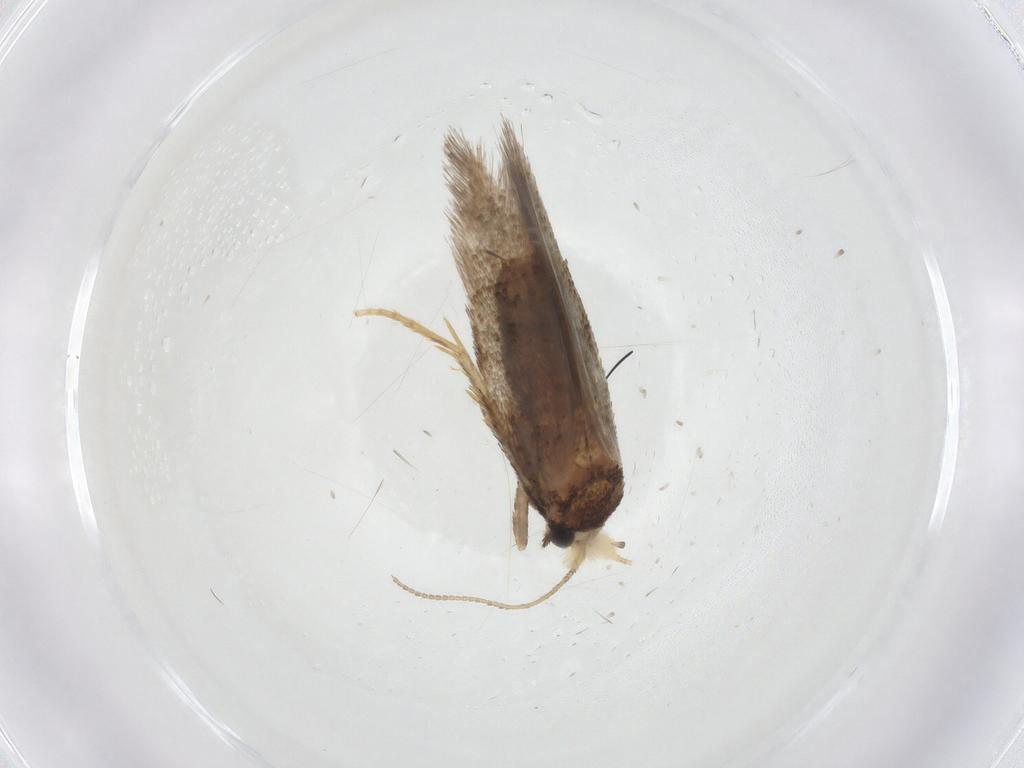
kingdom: Animalia
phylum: Arthropoda
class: Insecta
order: Lepidoptera
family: Nepticulidae
